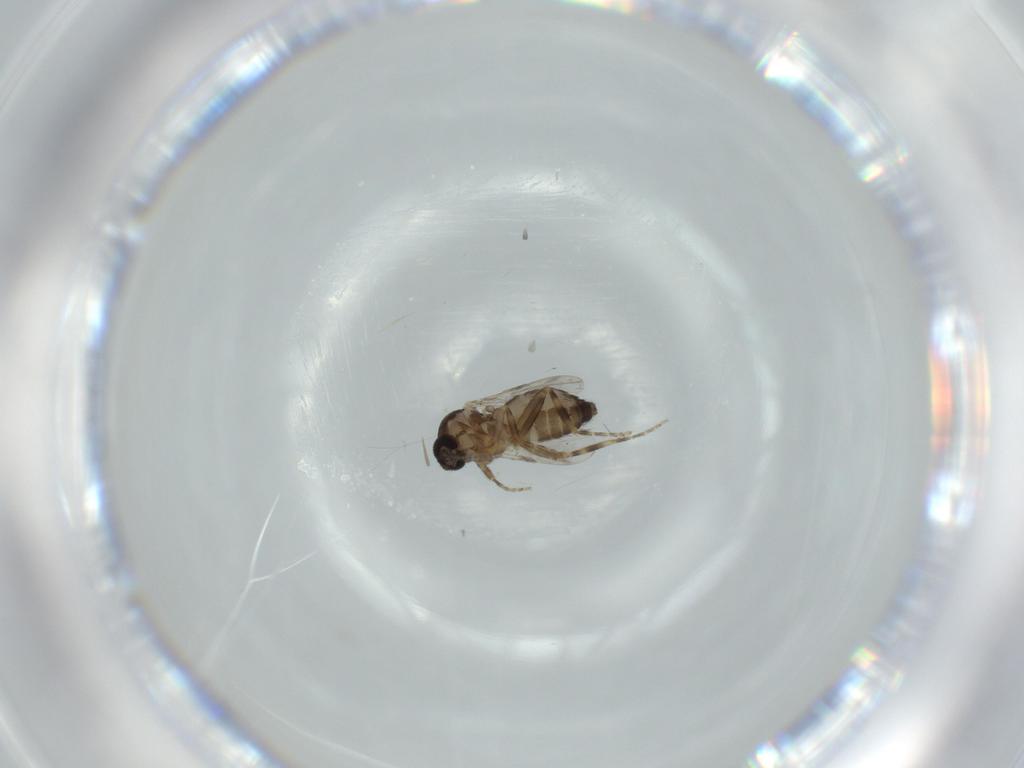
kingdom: Animalia
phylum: Arthropoda
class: Insecta
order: Diptera
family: Ceratopogonidae
